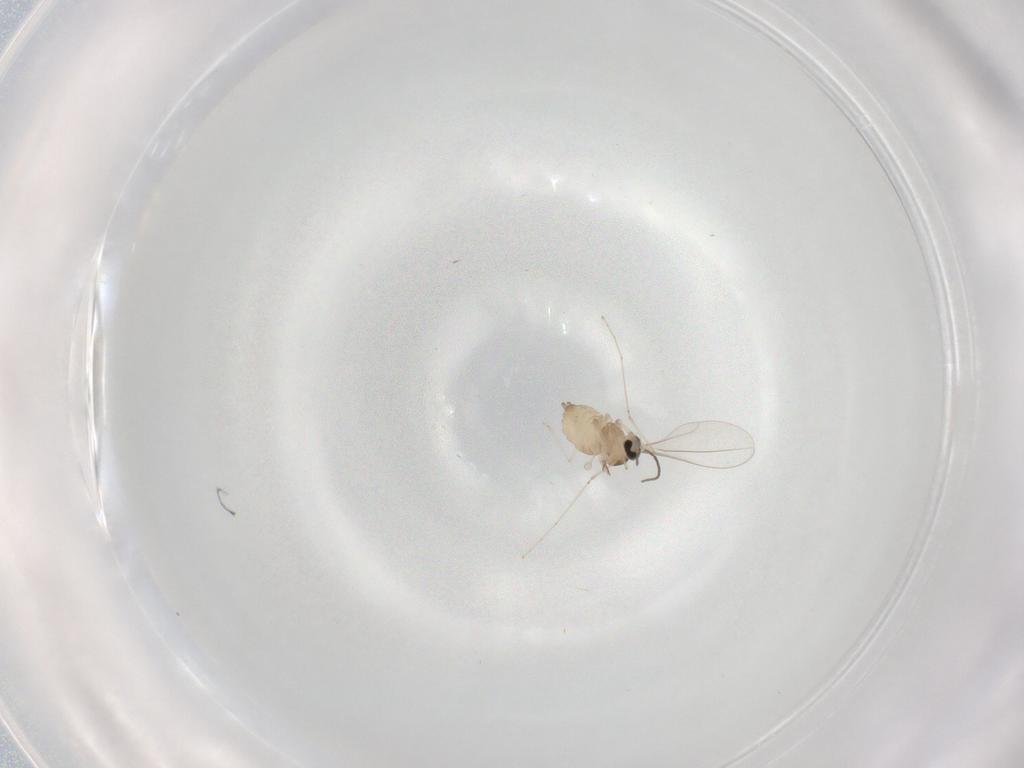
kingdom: Animalia
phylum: Arthropoda
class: Insecta
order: Diptera
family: Cecidomyiidae
